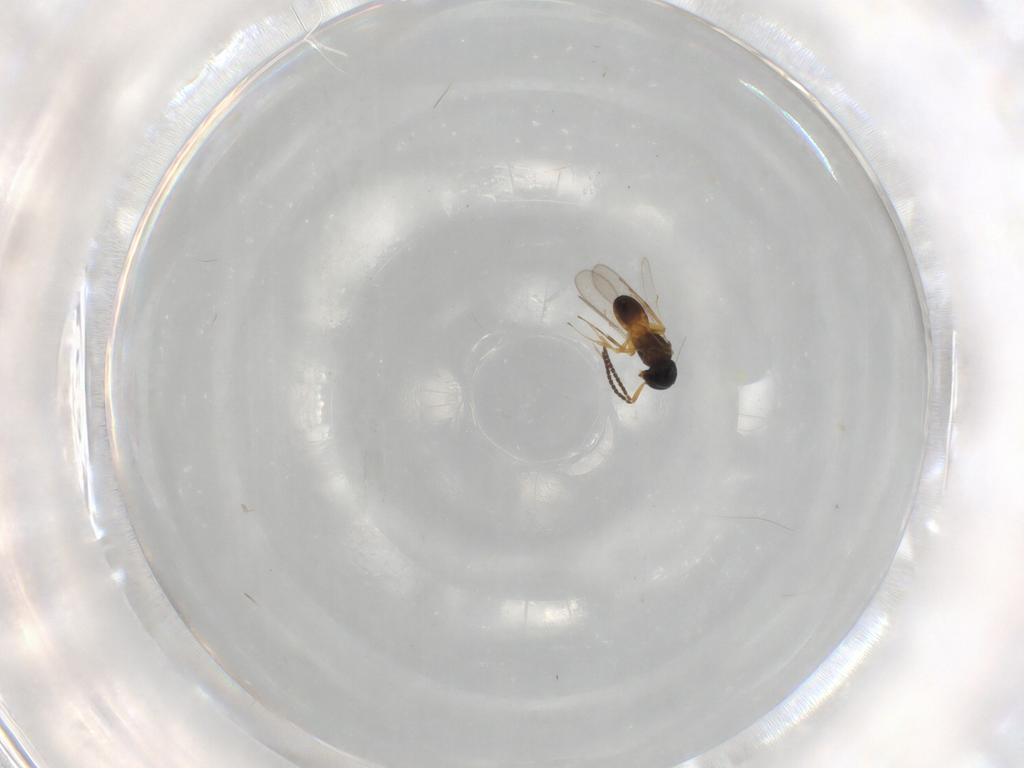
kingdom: Animalia
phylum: Arthropoda
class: Insecta
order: Hymenoptera
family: Scelionidae
